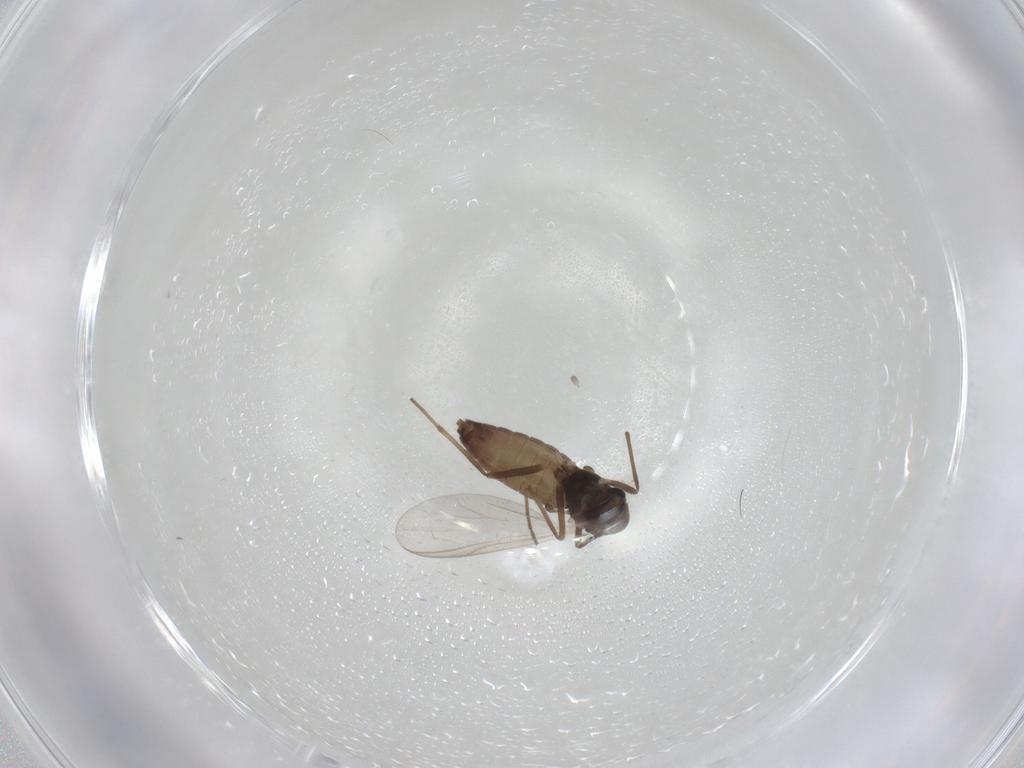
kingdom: Animalia
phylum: Arthropoda
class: Insecta
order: Diptera
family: Chironomidae
